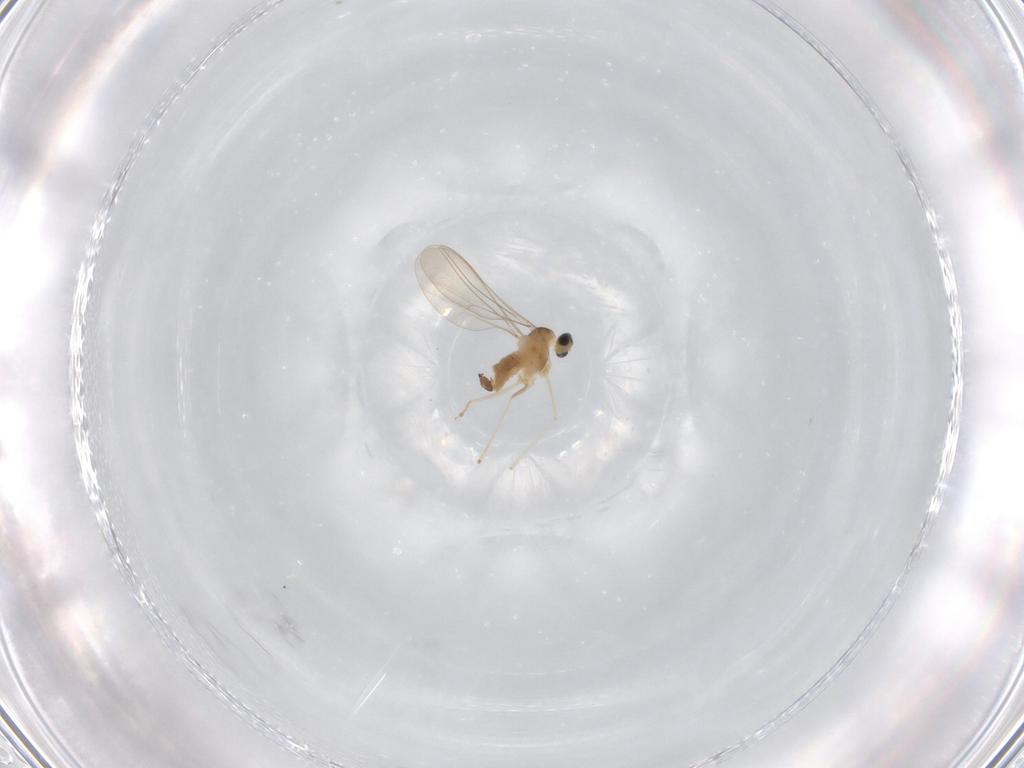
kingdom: Animalia
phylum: Arthropoda
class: Insecta
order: Diptera
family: Cecidomyiidae
